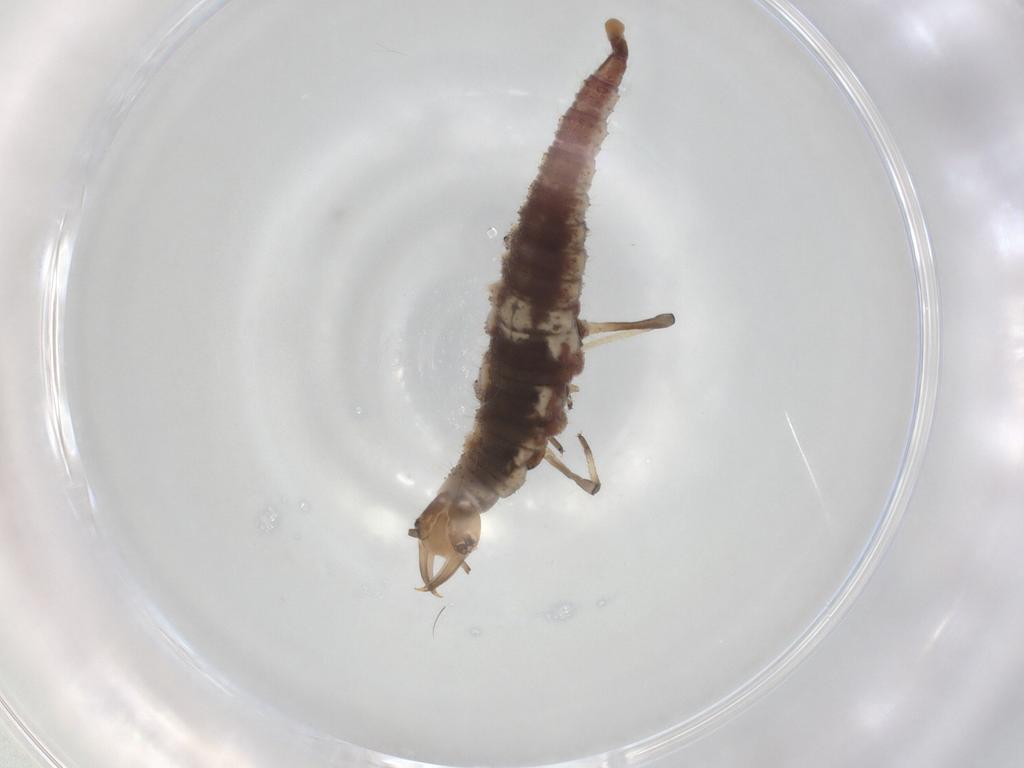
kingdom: Animalia
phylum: Arthropoda
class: Insecta
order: Neuroptera
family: Hemerobiidae
